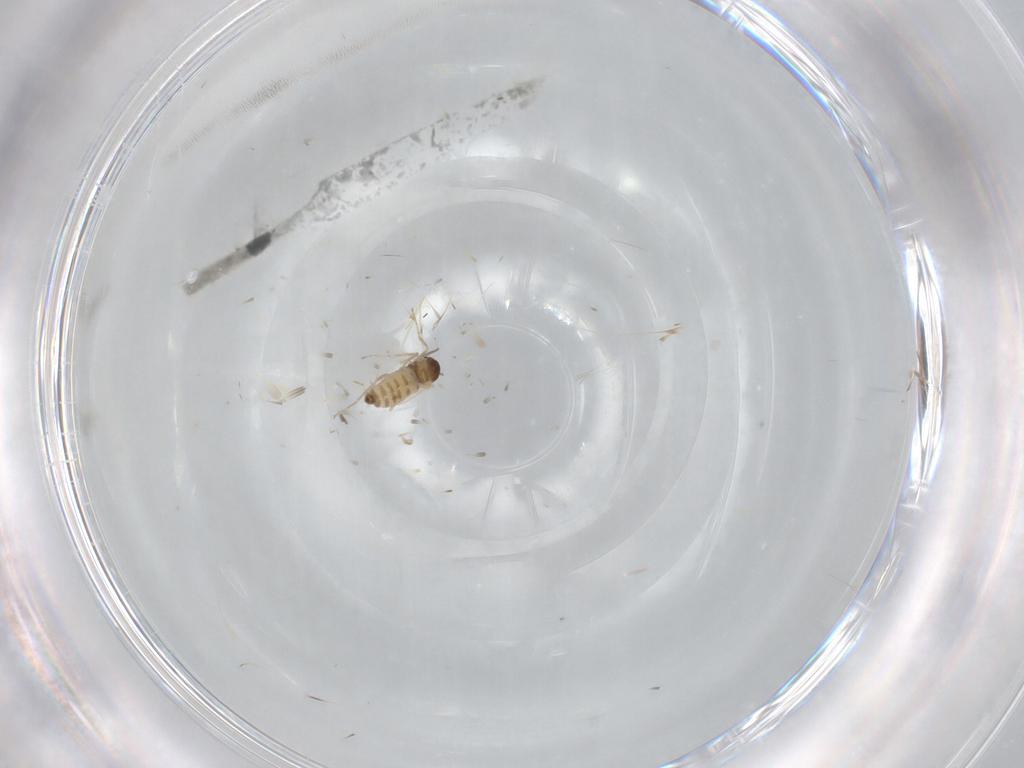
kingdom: Animalia
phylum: Arthropoda
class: Insecta
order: Diptera
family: Cecidomyiidae
